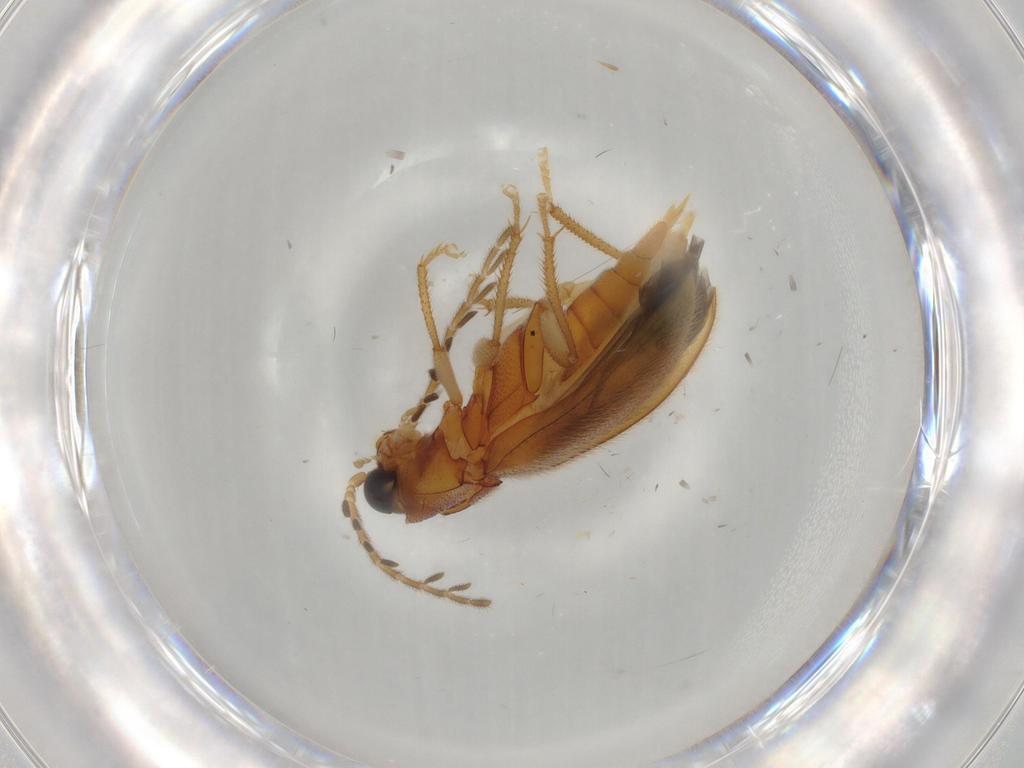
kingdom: Animalia
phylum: Arthropoda
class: Insecta
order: Coleoptera
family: Ptilodactylidae
